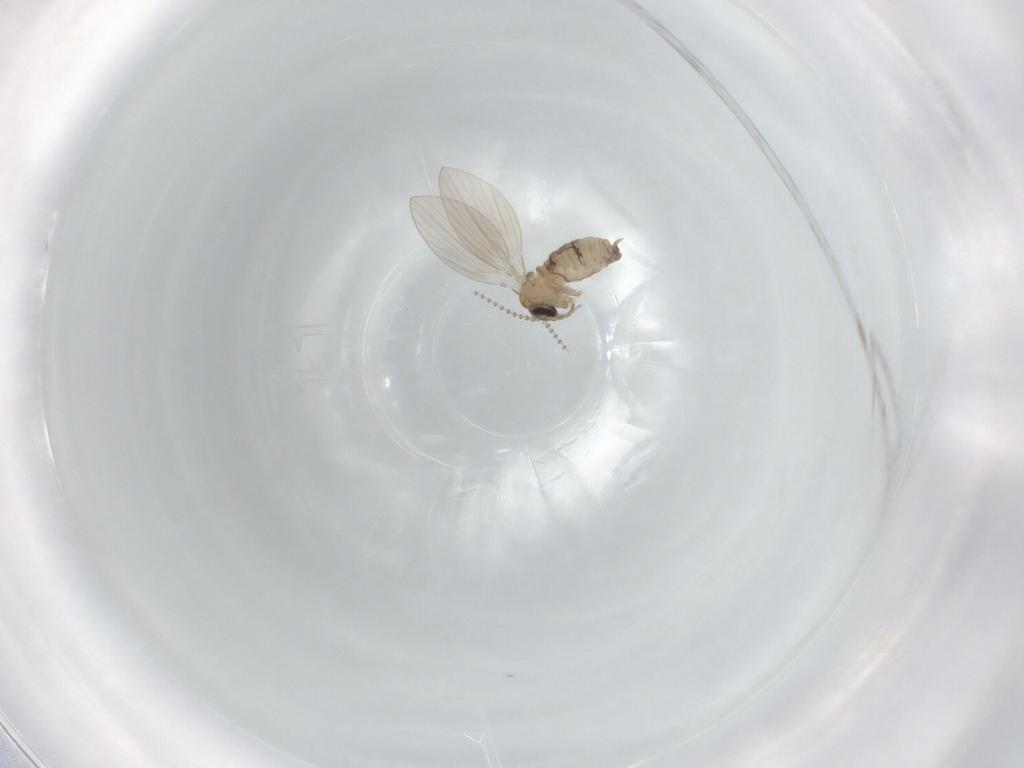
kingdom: Animalia
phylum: Arthropoda
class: Insecta
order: Diptera
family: Psychodidae
